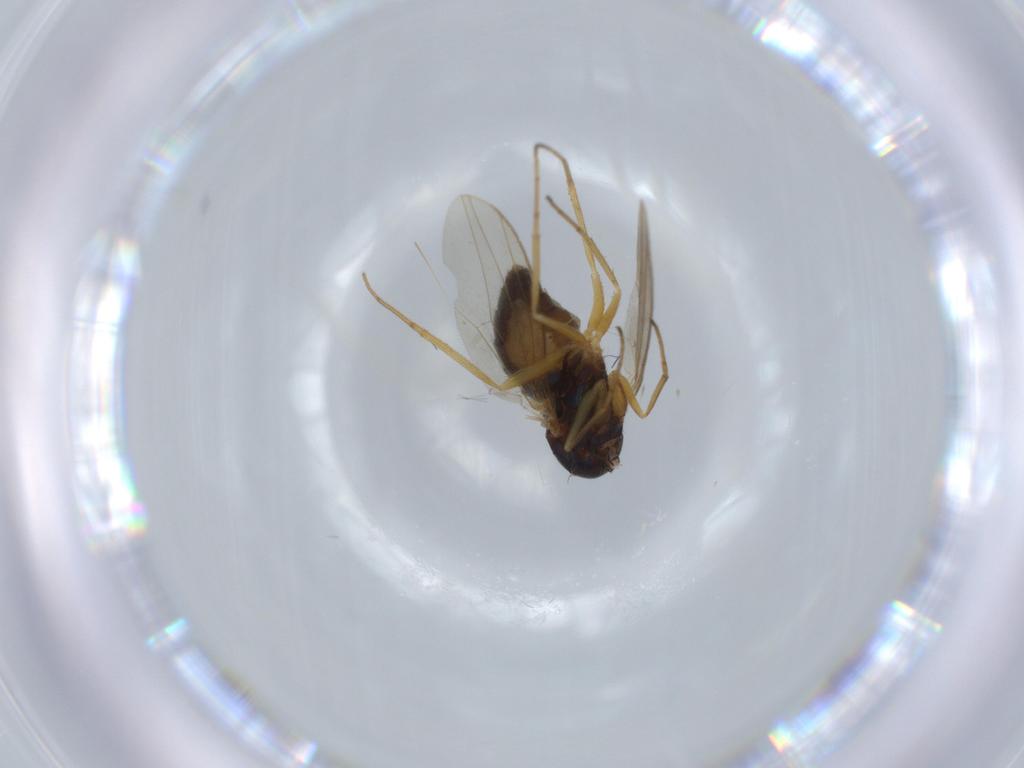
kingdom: Animalia
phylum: Arthropoda
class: Insecta
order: Diptera
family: Dolichopodidae
